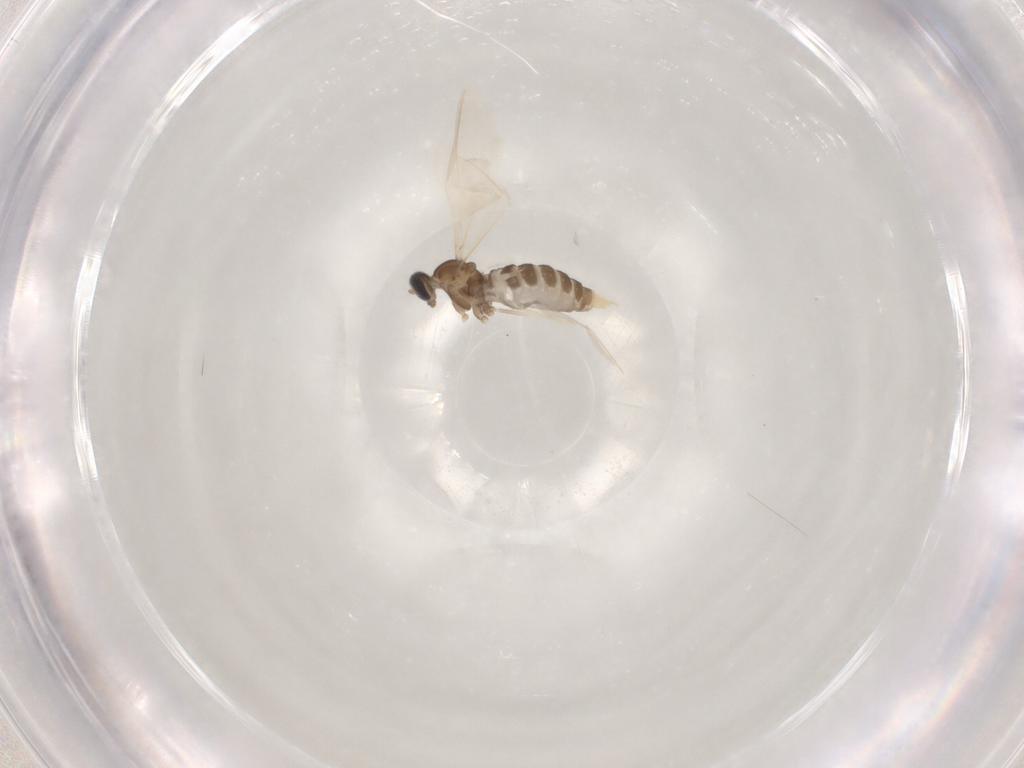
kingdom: Animalia
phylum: Arthropoda
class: Insecta
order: Diptera
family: Cecidomyiidae
